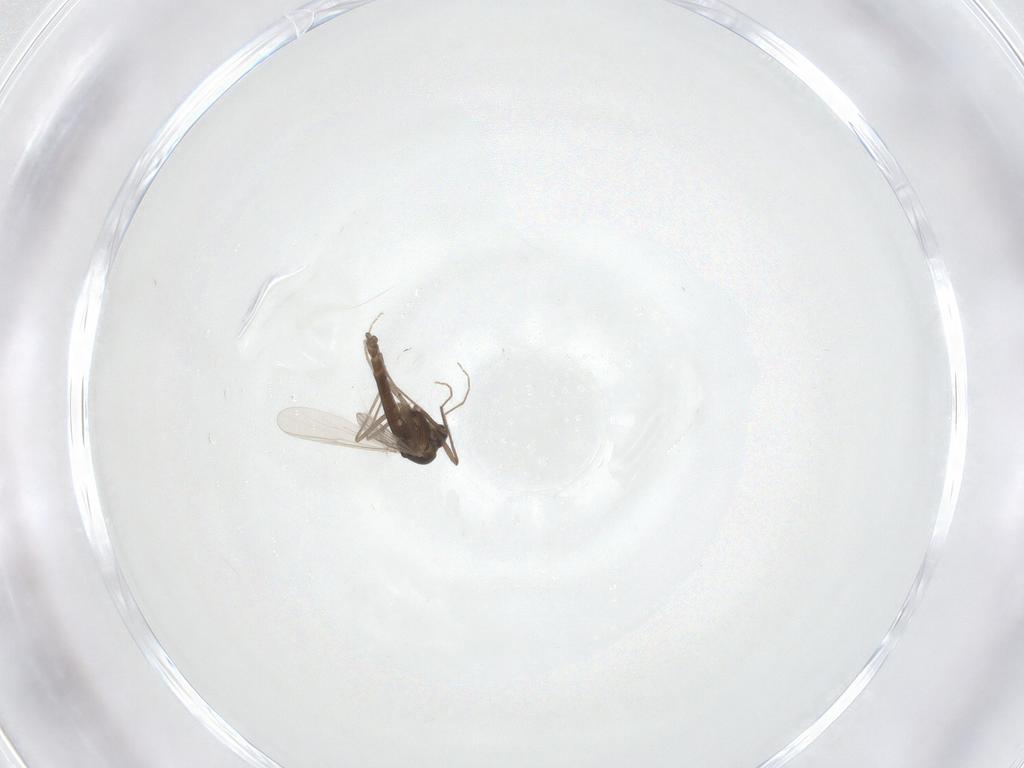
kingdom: Animalia
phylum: Arthropoda
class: Insecta
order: Diptera
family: Chironomidae
